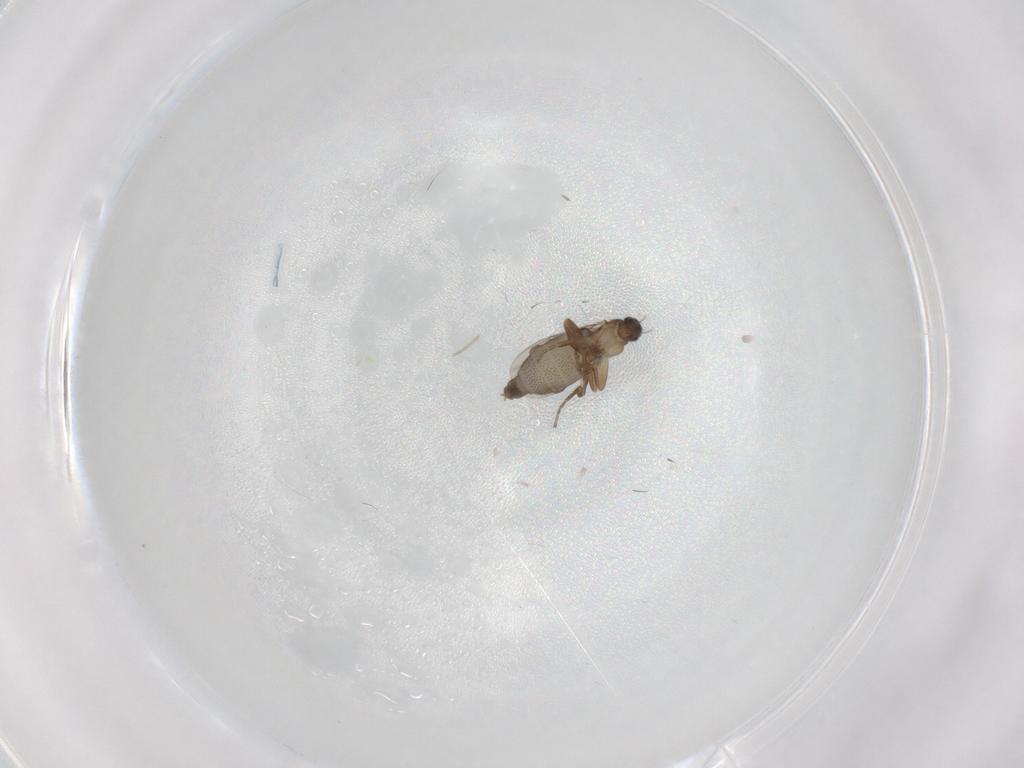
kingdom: Animalia
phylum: Arthropoda
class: Insecta
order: Diptera
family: Phoridae
